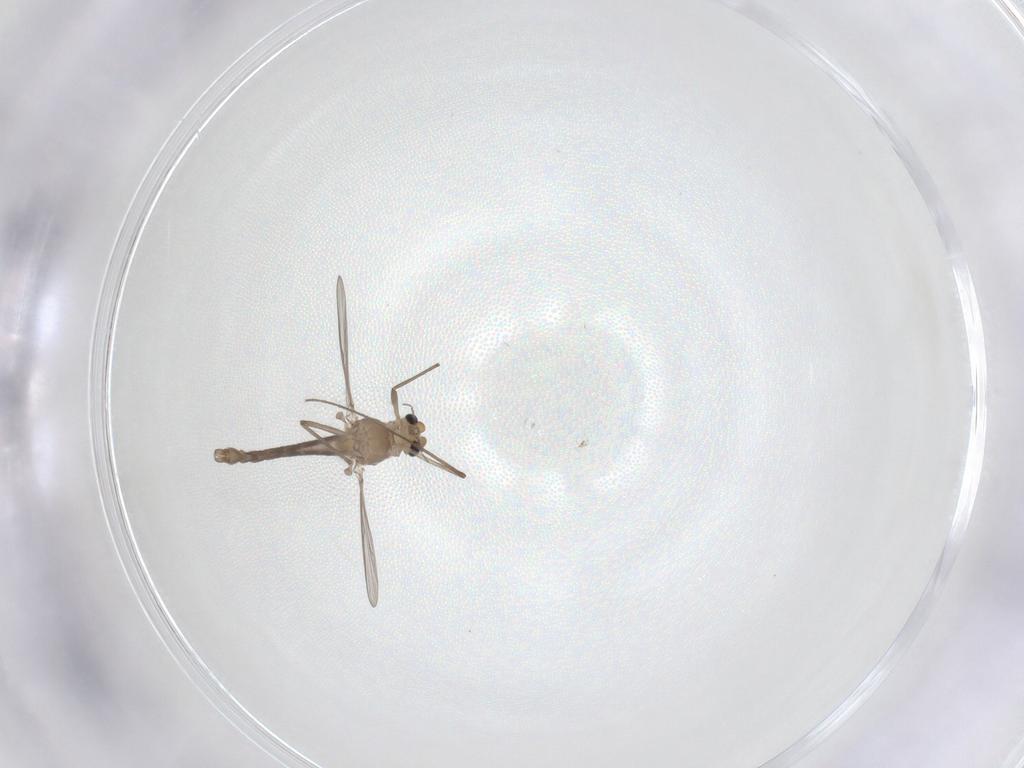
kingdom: Animalia
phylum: Arthropoda
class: Insecta
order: Diptera
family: Chironomidae
